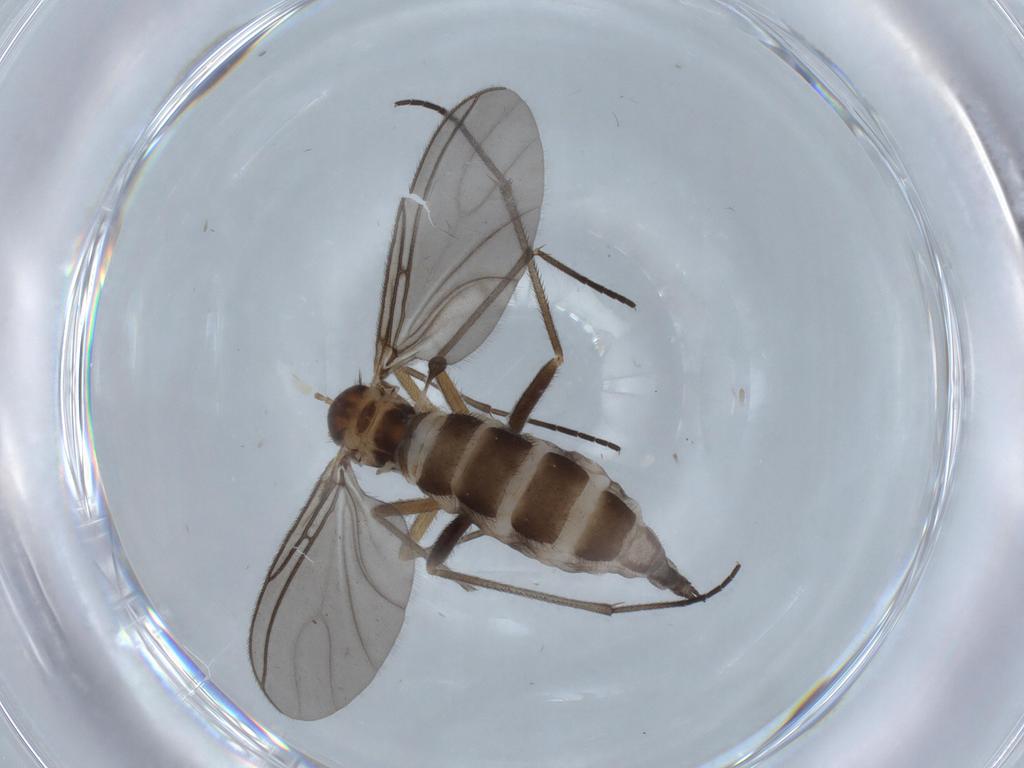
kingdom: Animalia
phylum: Arthropoda
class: Insecta
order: Diptera
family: Sciaridae
